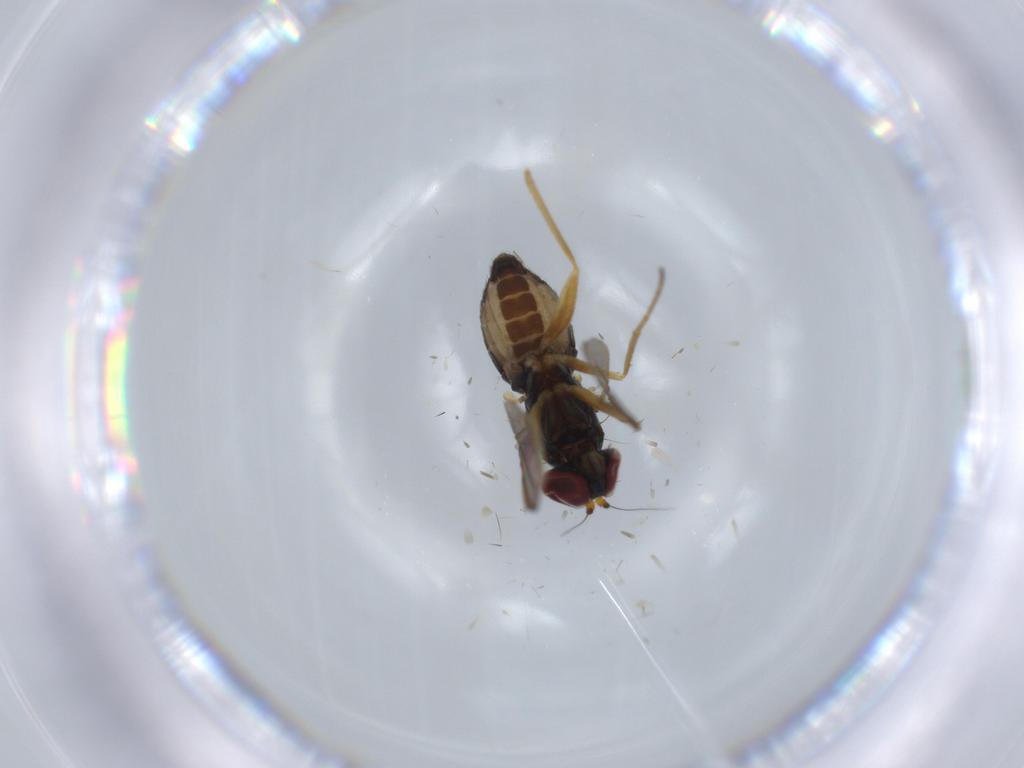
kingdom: Animalia
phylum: Arthropoda
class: Insecta
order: Diptera
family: Dolichopodidae
